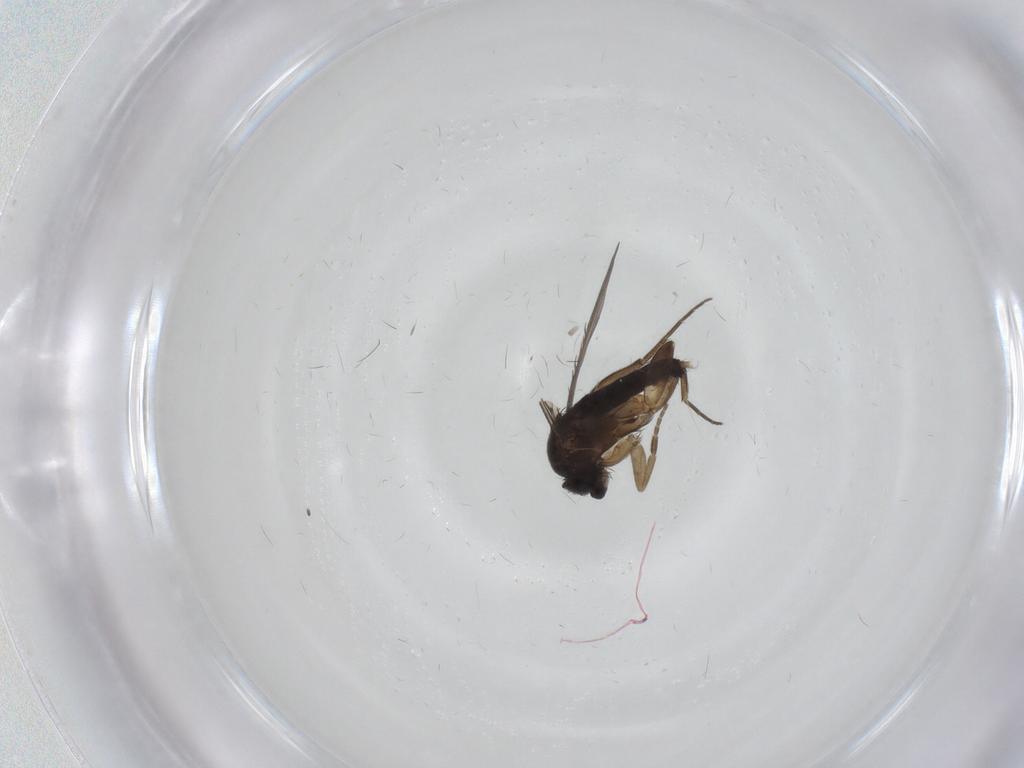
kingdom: Animalia
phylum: Arthropoda
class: Insecta
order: Diptera
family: Phoridae
